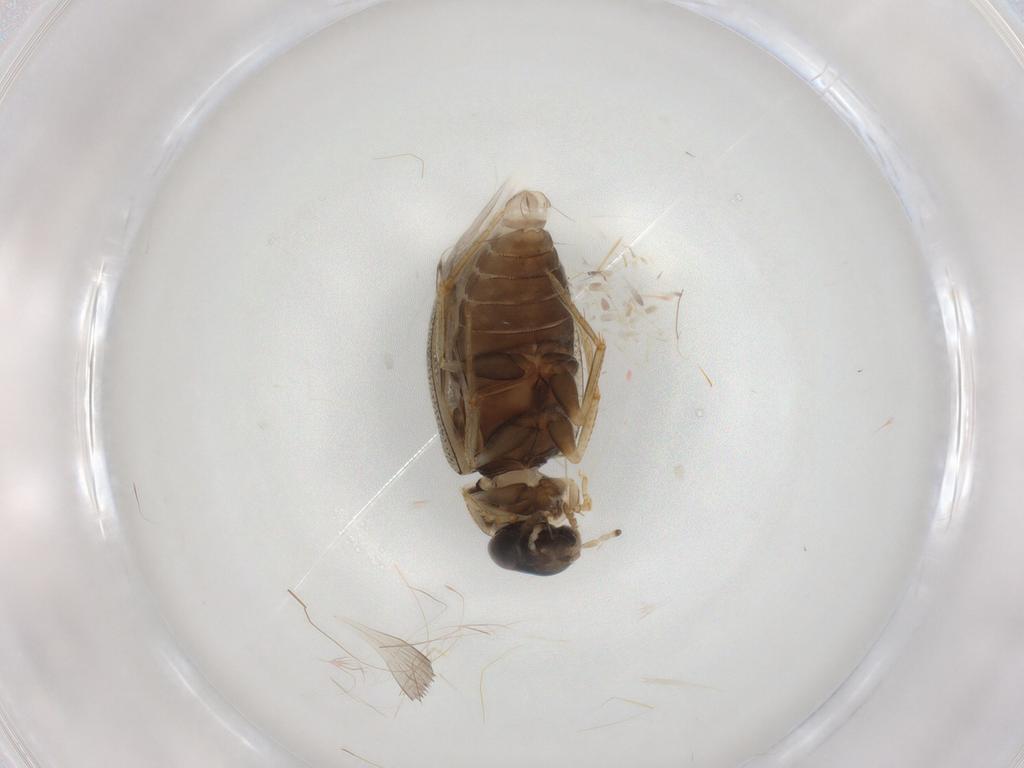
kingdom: Animalia
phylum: Arthropoda
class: Insecta
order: Coleoptera
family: Hydrophilidae
